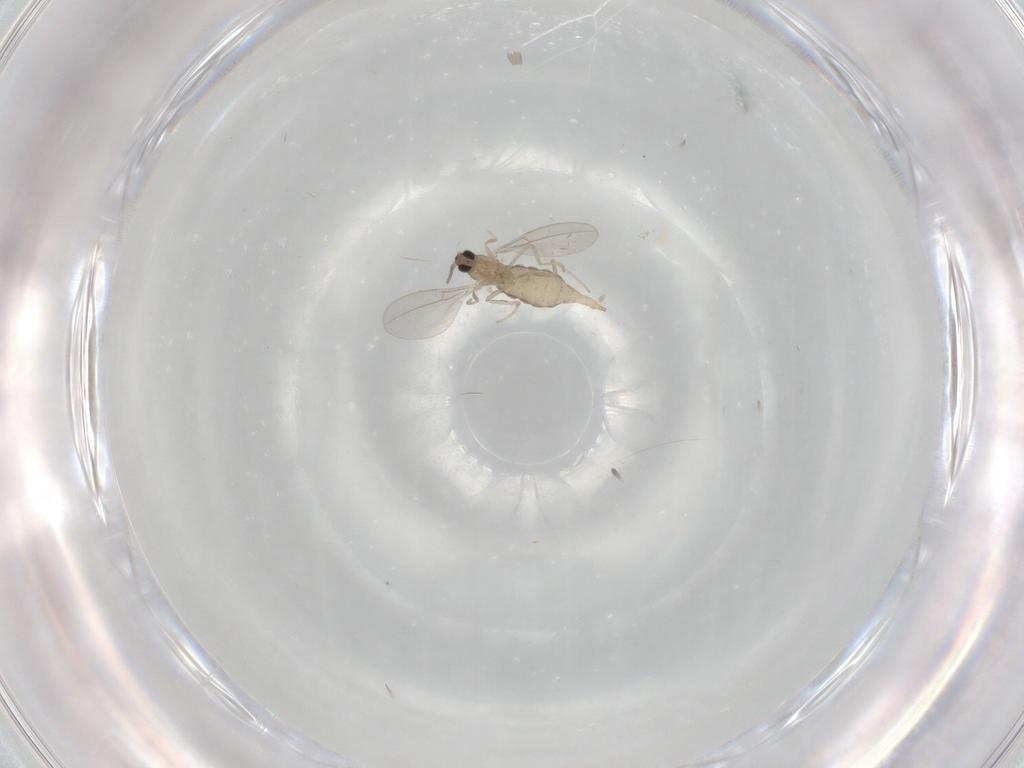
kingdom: Animalia
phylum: Arthropoda
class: Insecta
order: Diptera
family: Cecidomyiidae
